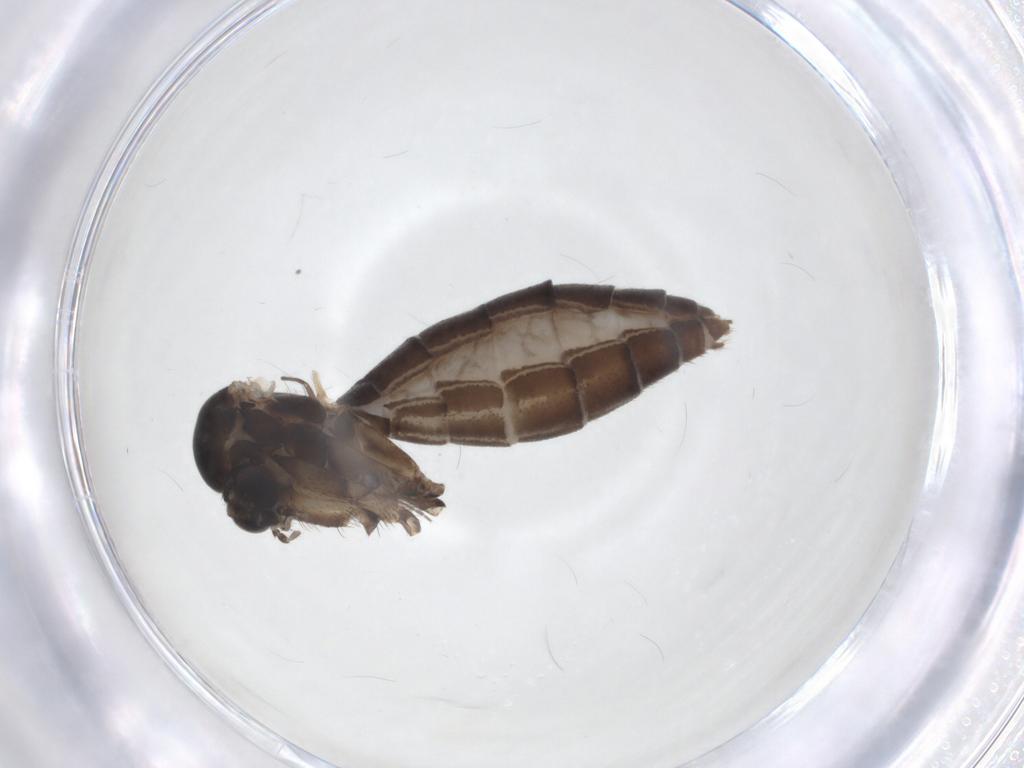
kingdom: Animalia
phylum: Arthropoda
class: Insecta
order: Diptera
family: Mycetophilidae
